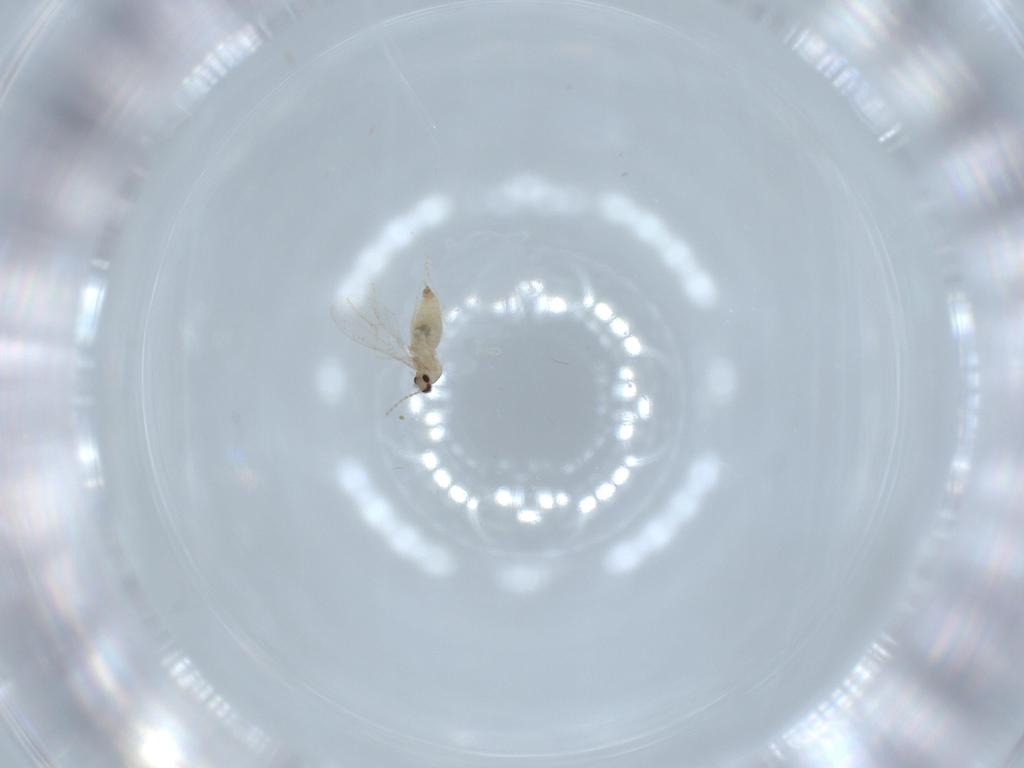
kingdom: Animalia
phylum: Arthropoda
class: Insecta
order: Diptera
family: Cecidomyiidae
